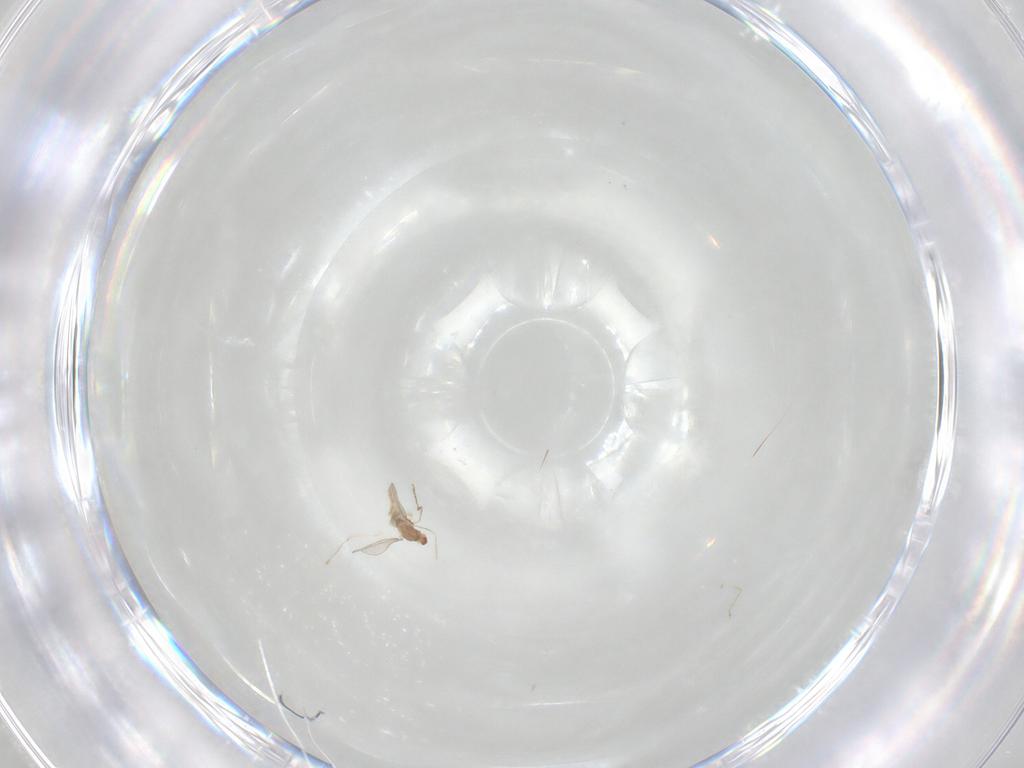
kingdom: Animalia
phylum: Arthropoda
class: Insecta
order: Diptera
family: Cecidomyiidae
